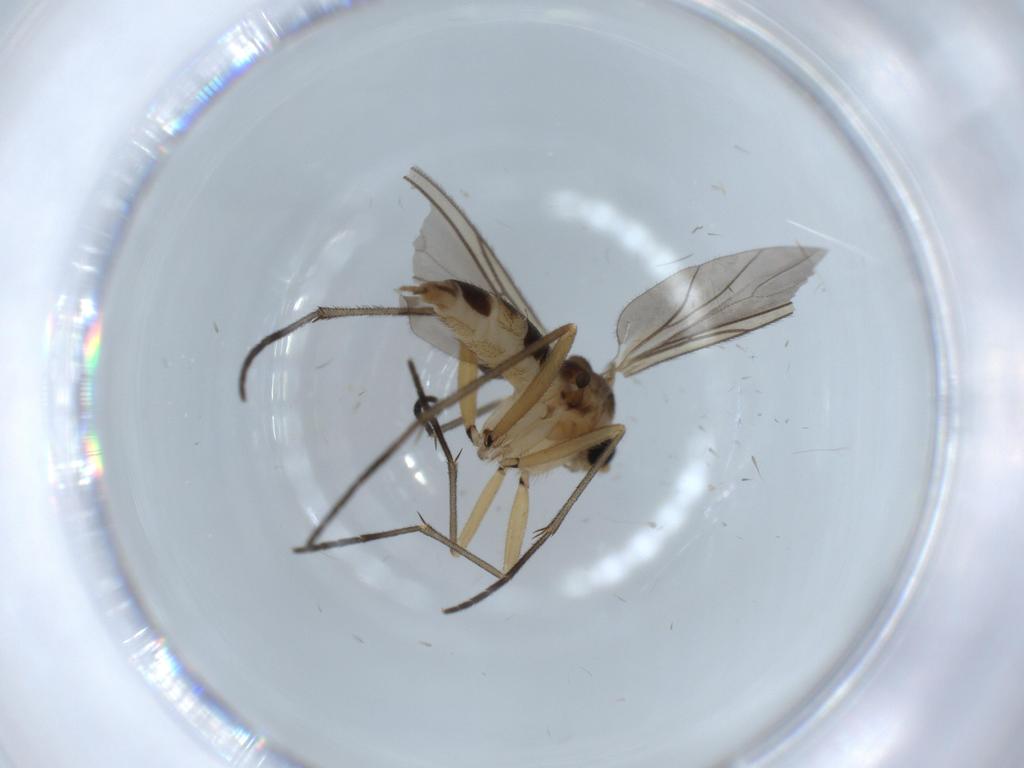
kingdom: Animalia
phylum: Arthropoda
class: Insecta
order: Diptera
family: Sciaridae
